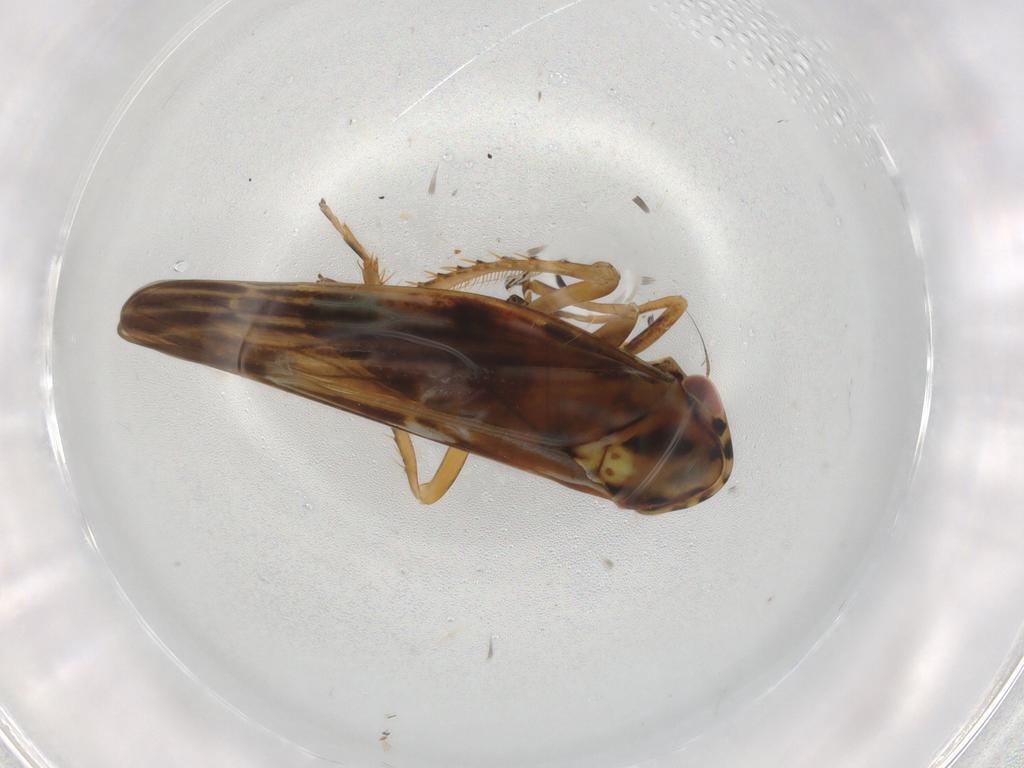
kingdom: Animalia
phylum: Arthropoda
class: Insecta
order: Hemiptera
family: Cicadellidae
